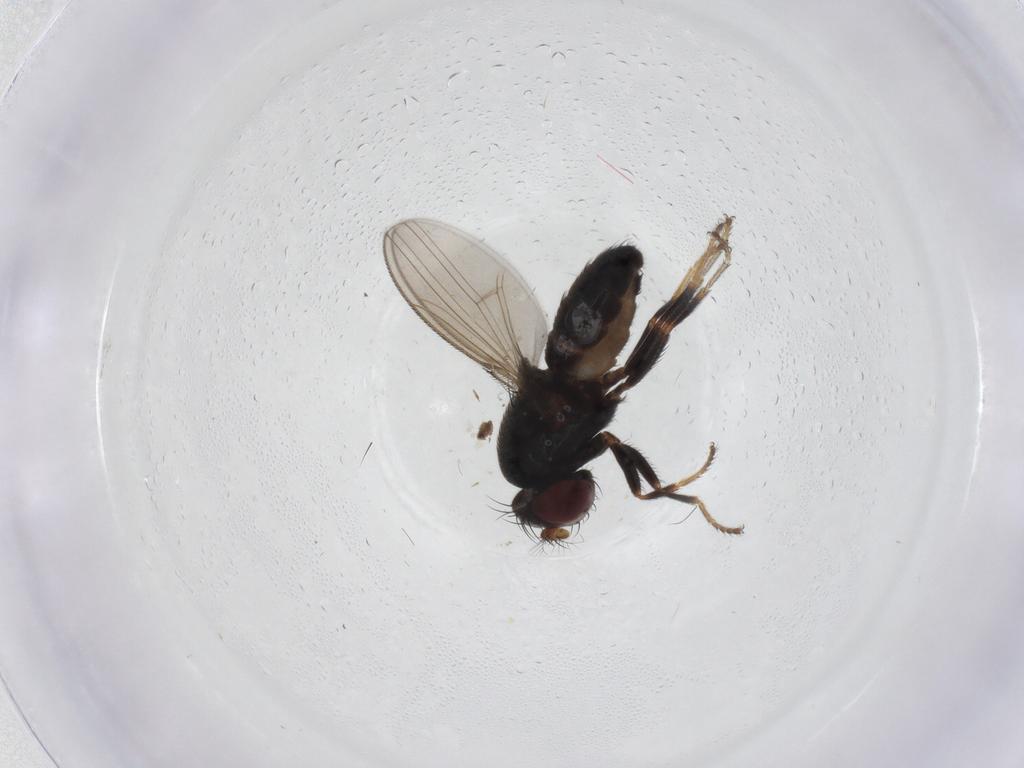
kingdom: Animalia
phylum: Arthropoda
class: Insecta
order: Diptera
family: Ephydridae
